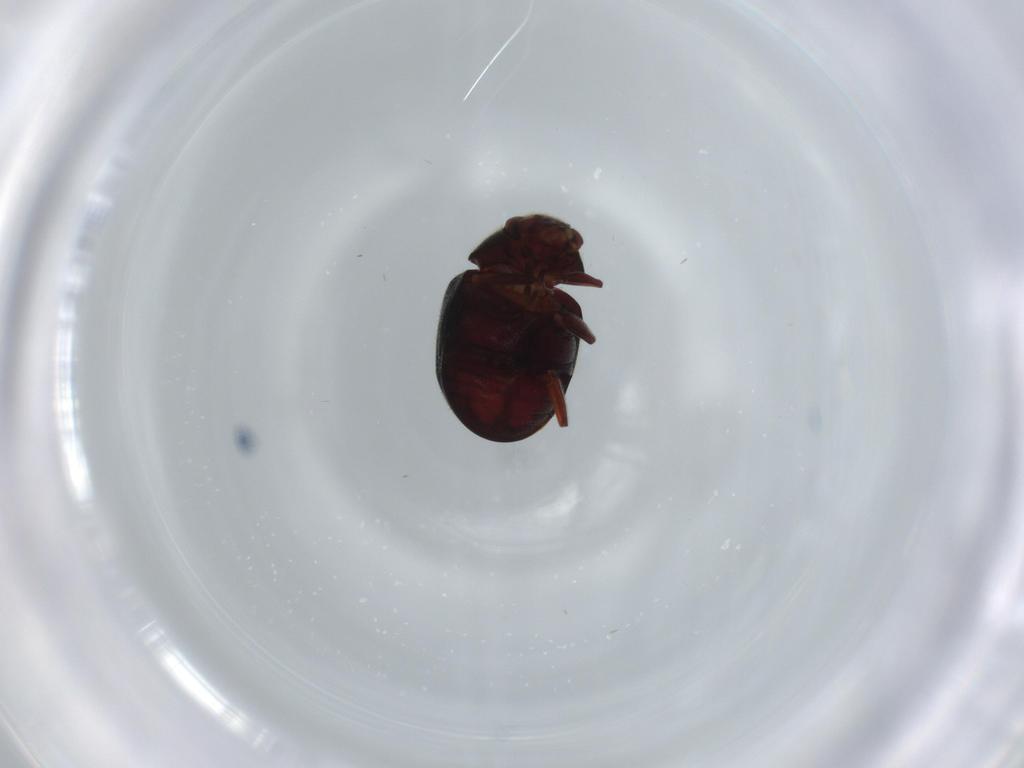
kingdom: Animalia
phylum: Arthropoda
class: Insecta
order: Coleoptera
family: Ptinidae
